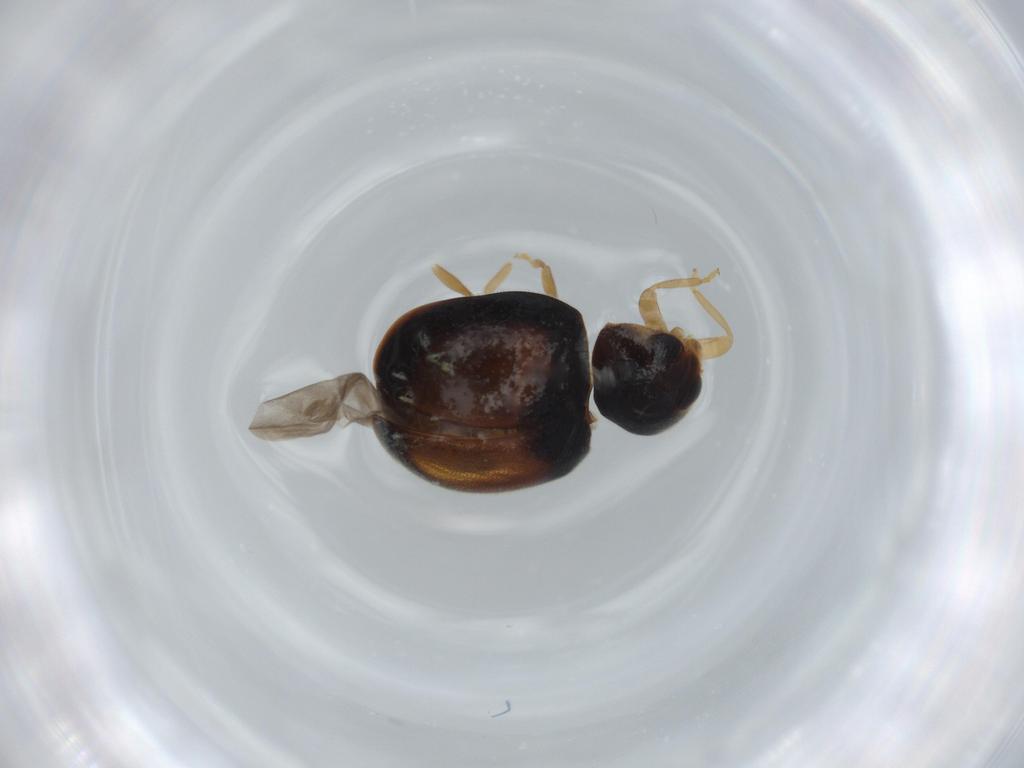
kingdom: Animalia
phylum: Arthropoda
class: Insecta
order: Coleoptera
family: Coccinellidae
